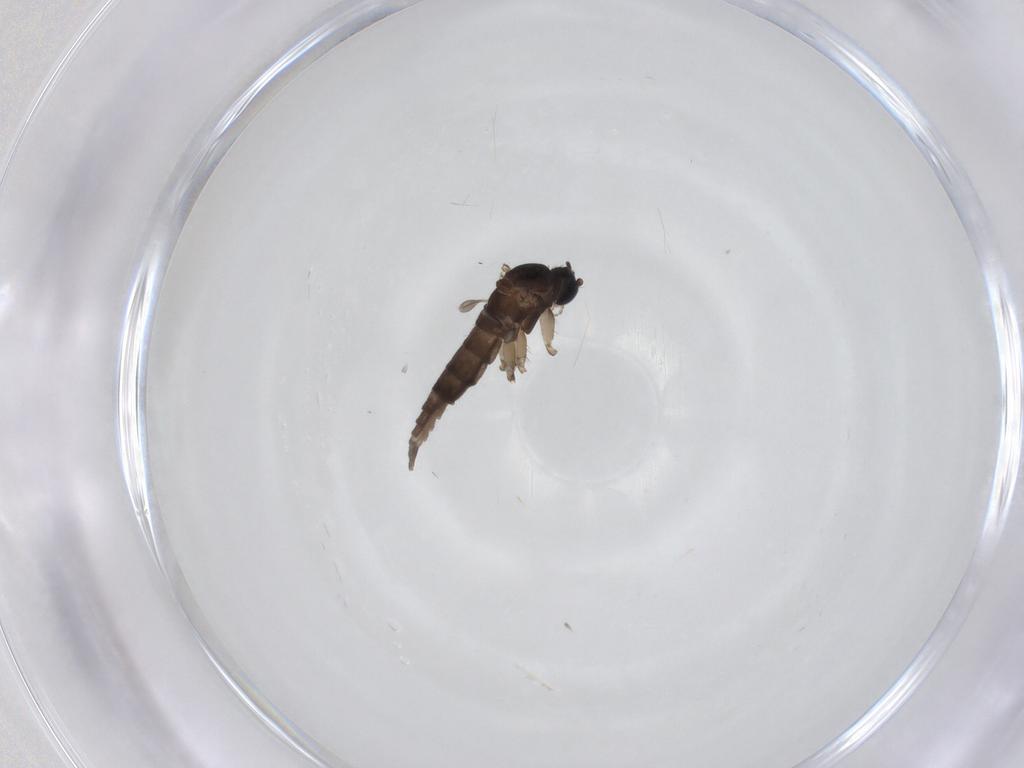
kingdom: Animalia
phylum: Arthropoda
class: Insecta
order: Diptera
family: Sciaridae
